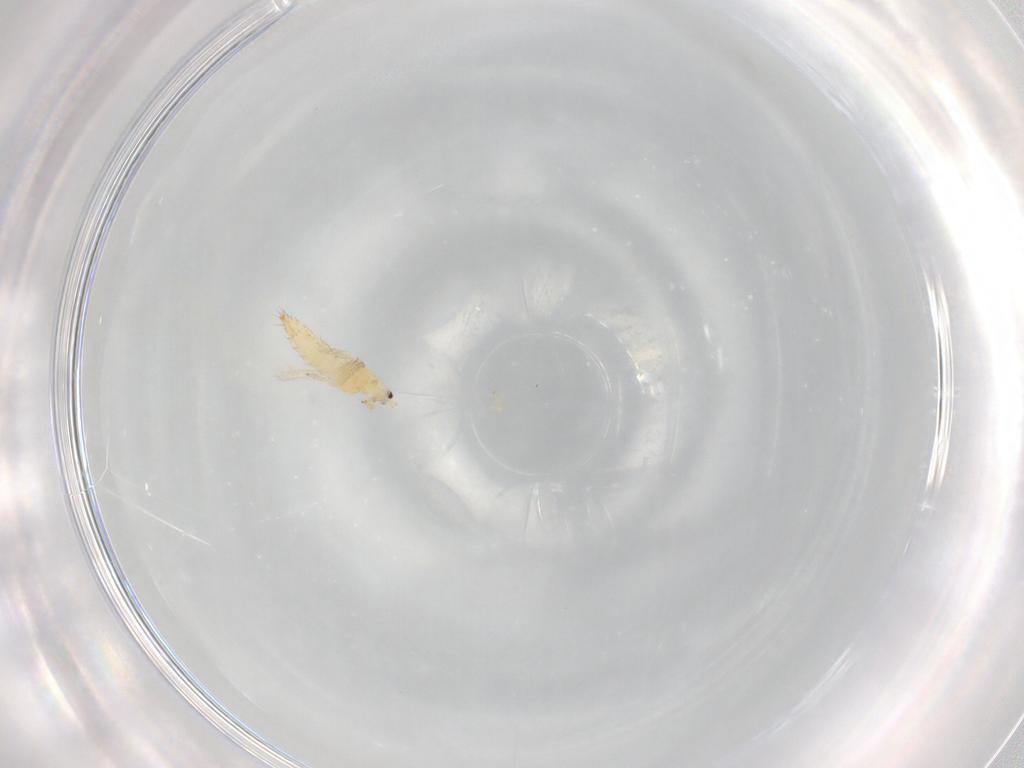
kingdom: Animalia
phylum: Arthropoda
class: Insecta
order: Thysanoptera
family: Thripidae
